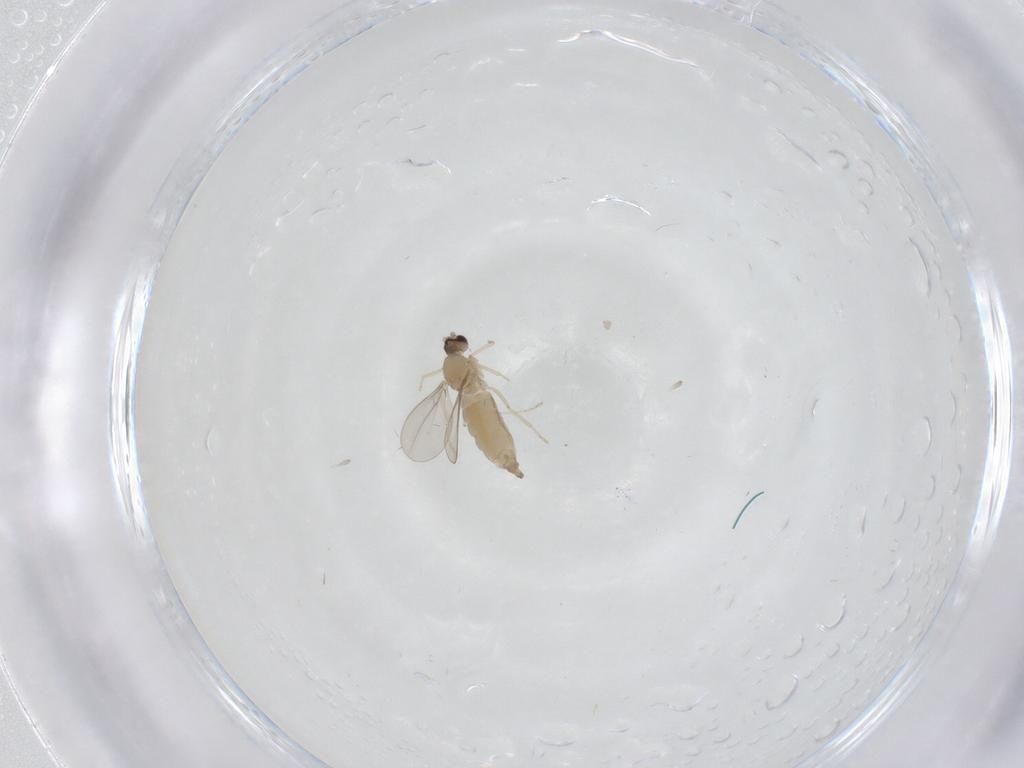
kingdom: Animalia
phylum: Arthropoda
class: Insecta
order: Diptera
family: Cecidomyiidae
